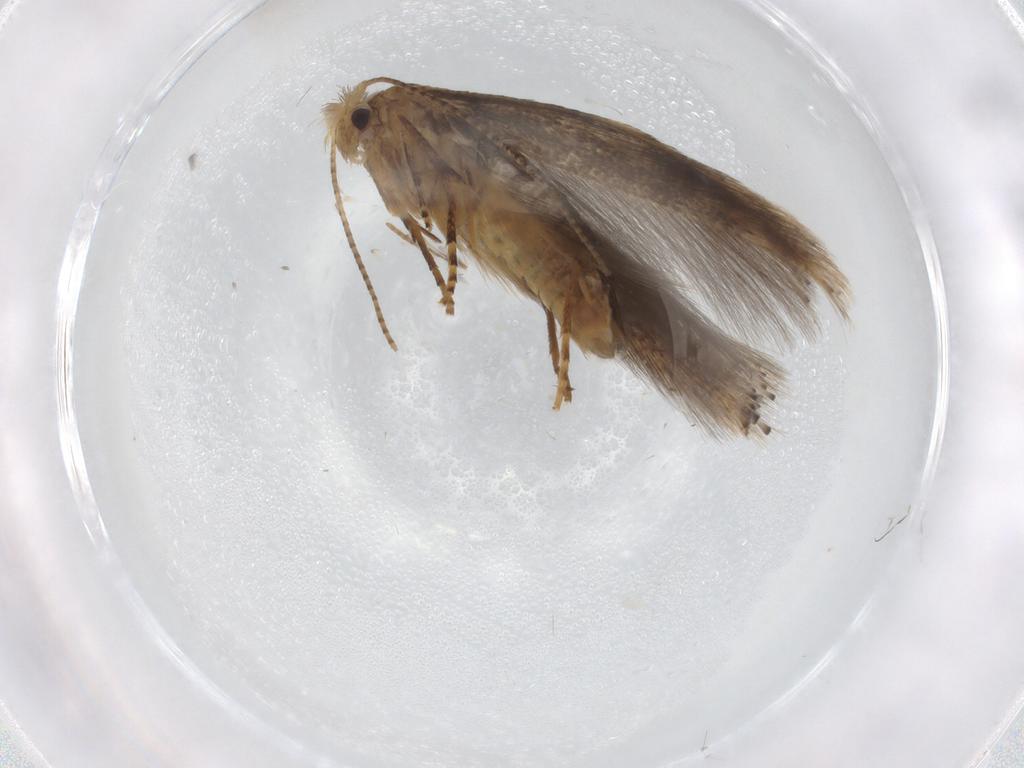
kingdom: Animalia
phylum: Arthropoda
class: Insecta
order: Lepidoptera
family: Bucculatricidae
